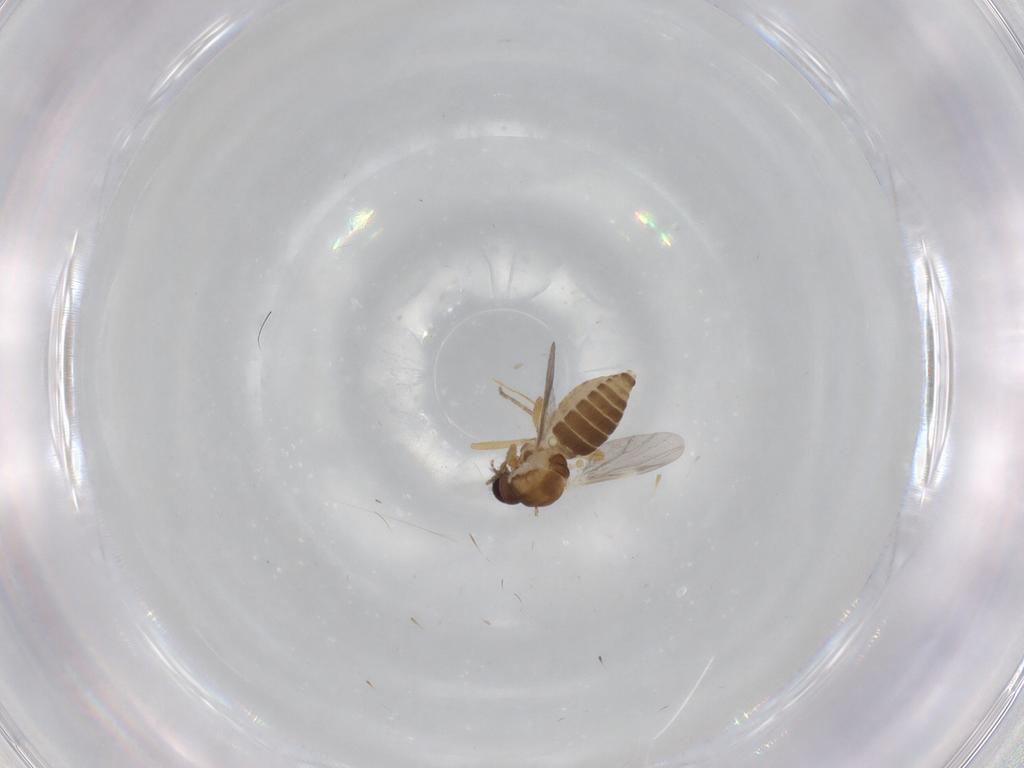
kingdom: Animalia
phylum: Arthropoda
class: Insecta
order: Diptera
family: Ceratopogonidae
